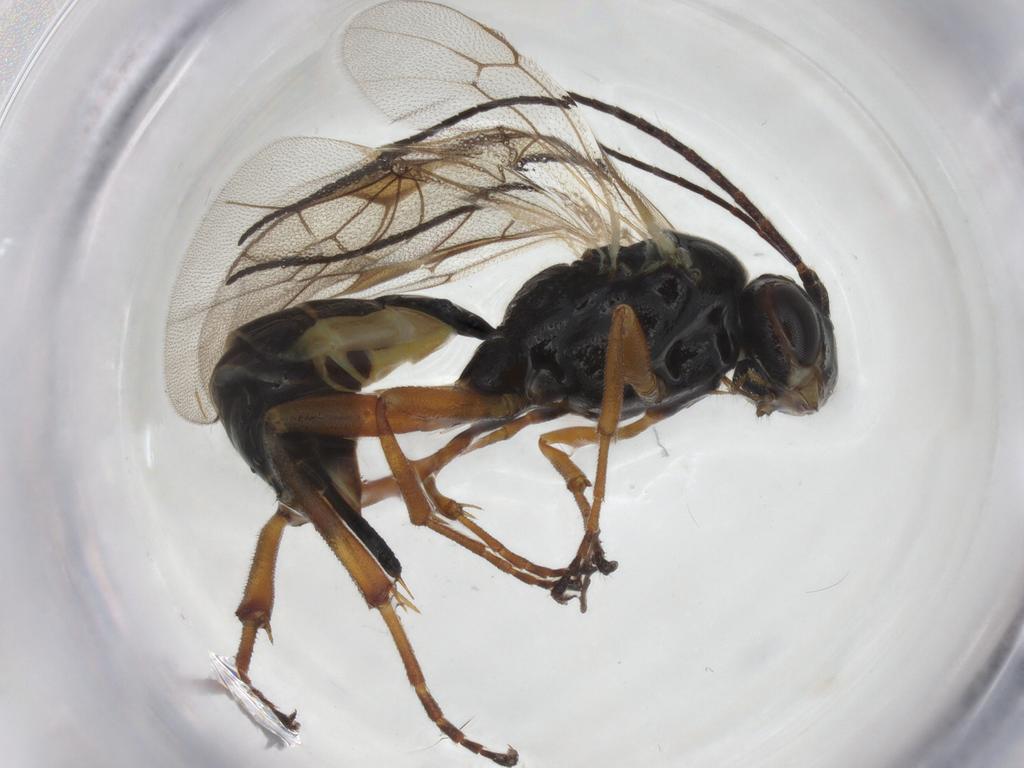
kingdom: Animalia
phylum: Arthropoda
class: Insecta
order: Hymenoptera
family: Ichneumonidae
